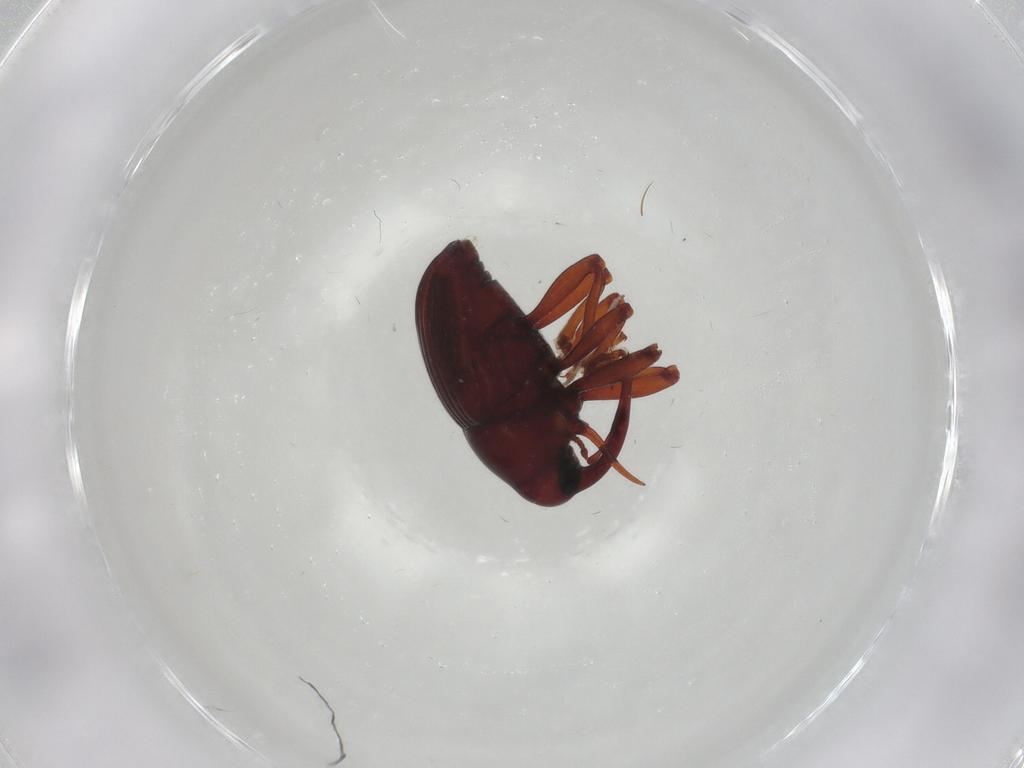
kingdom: Animalia
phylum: Arthropoda
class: Insecta
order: Coleoptera
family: Curculionidae
